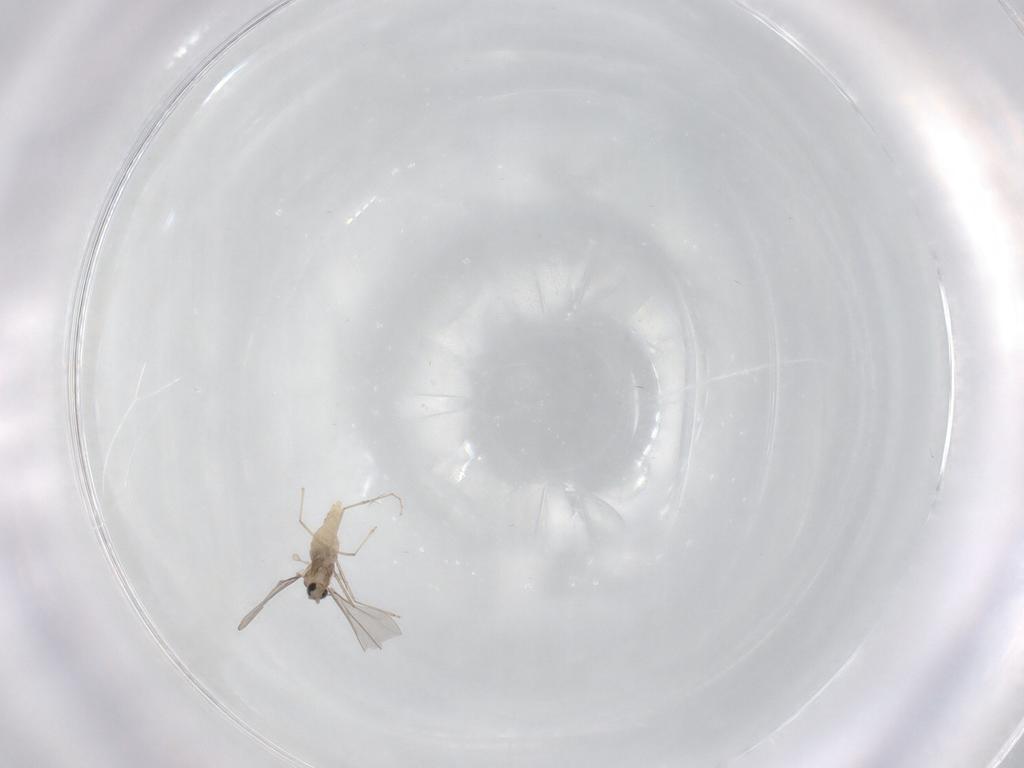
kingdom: Animalia
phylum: Arthropoda
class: Insecta
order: Diptera
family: Cecidomyiidae
